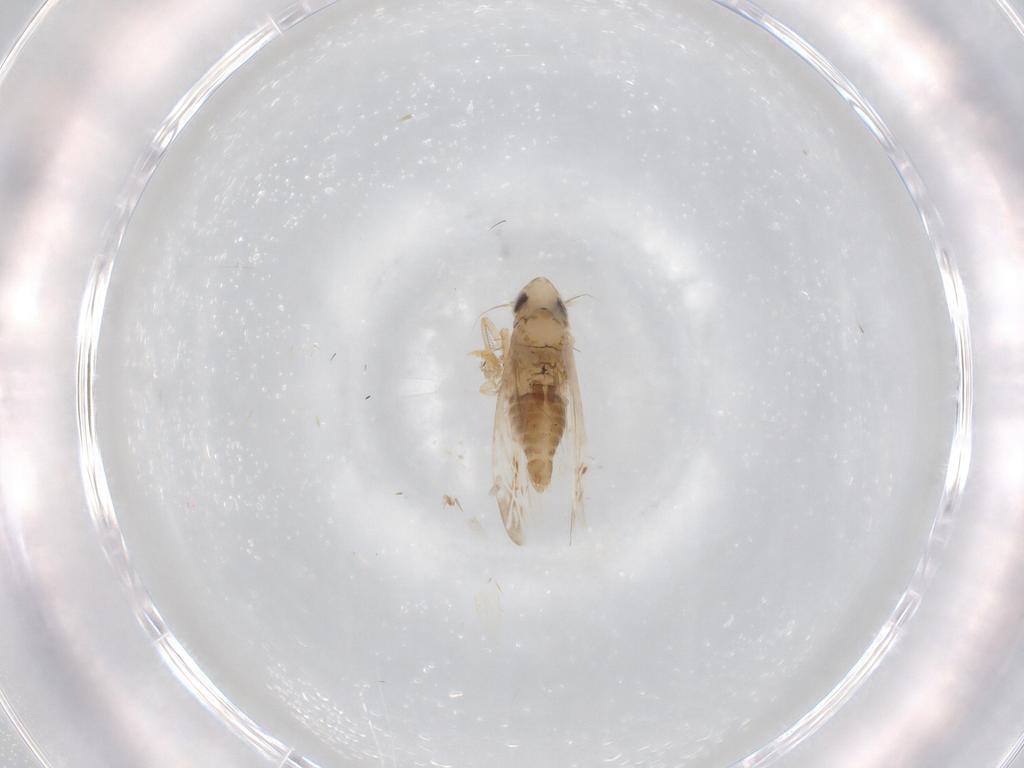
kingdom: Animalia
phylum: Arthropoda
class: Insecta
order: Hemiptera
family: Cicadellidae
